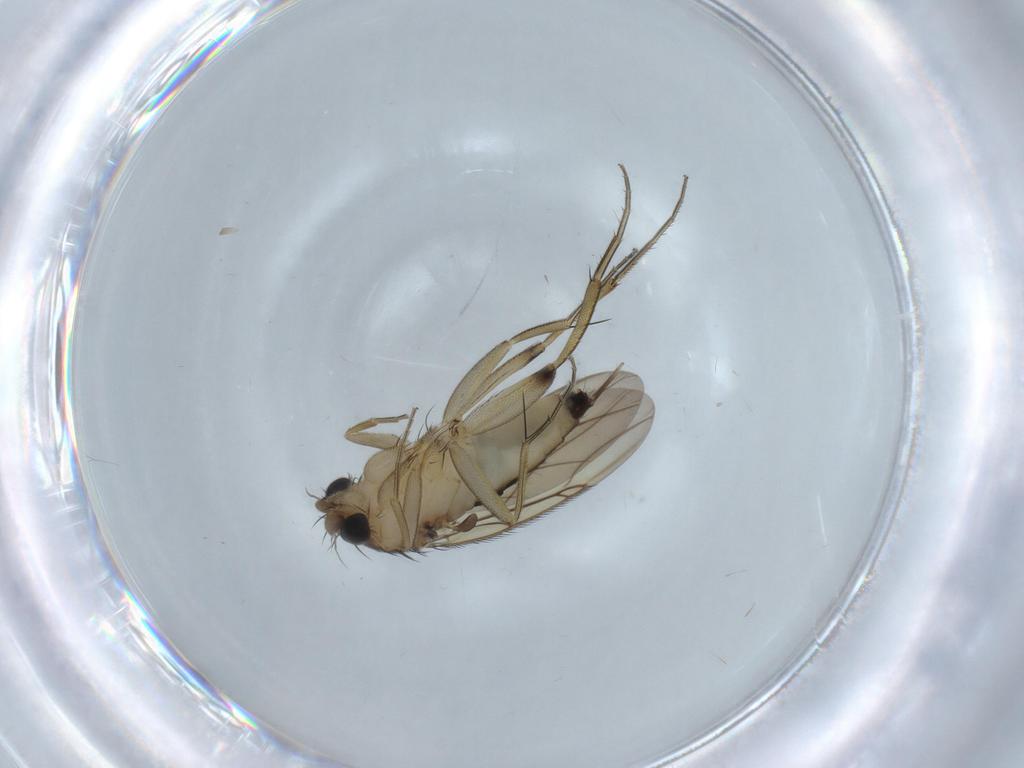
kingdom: Animalia
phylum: Arthropoda
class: Insecta
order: Diptera
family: Phoridae
